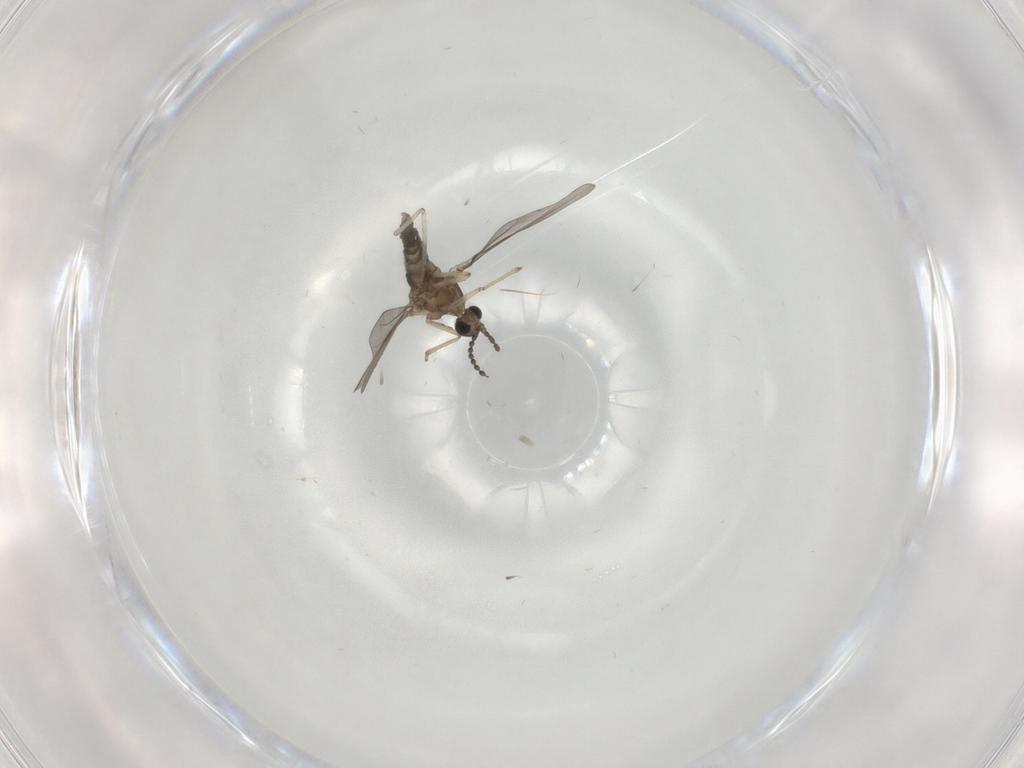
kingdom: Animalia
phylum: Arthropoda
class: Insecta
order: Diptera
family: Cecidomyiidae
